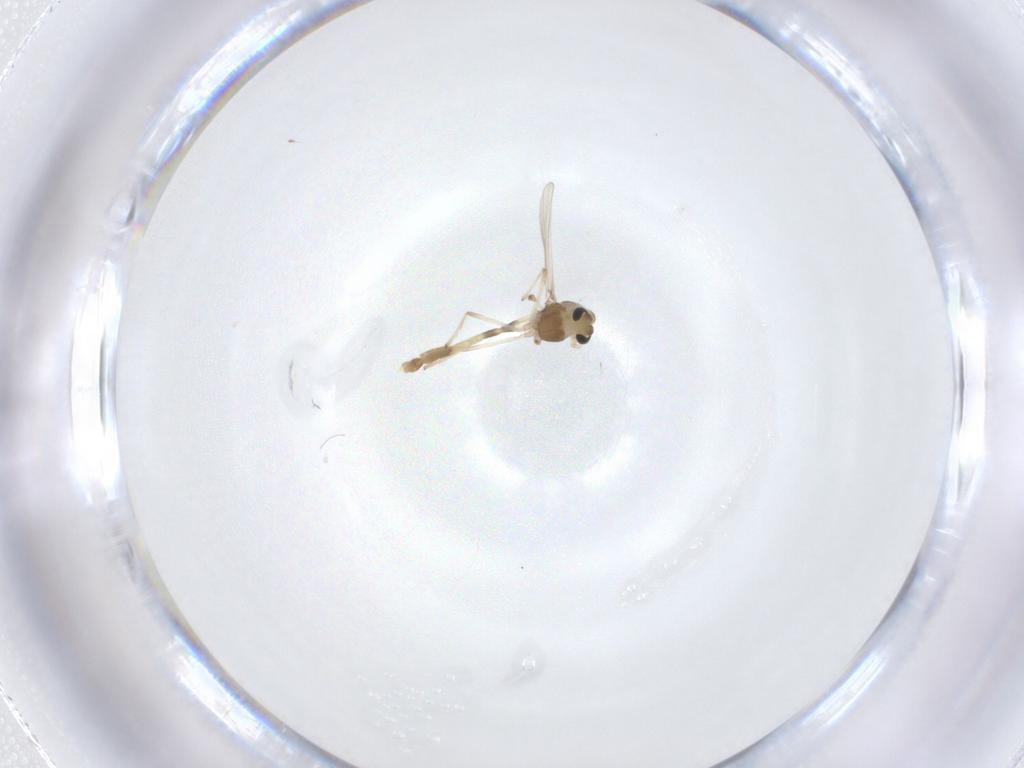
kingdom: Animalia
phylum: Arthropoda
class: Insecta
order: Diptera
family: Chironomidae
